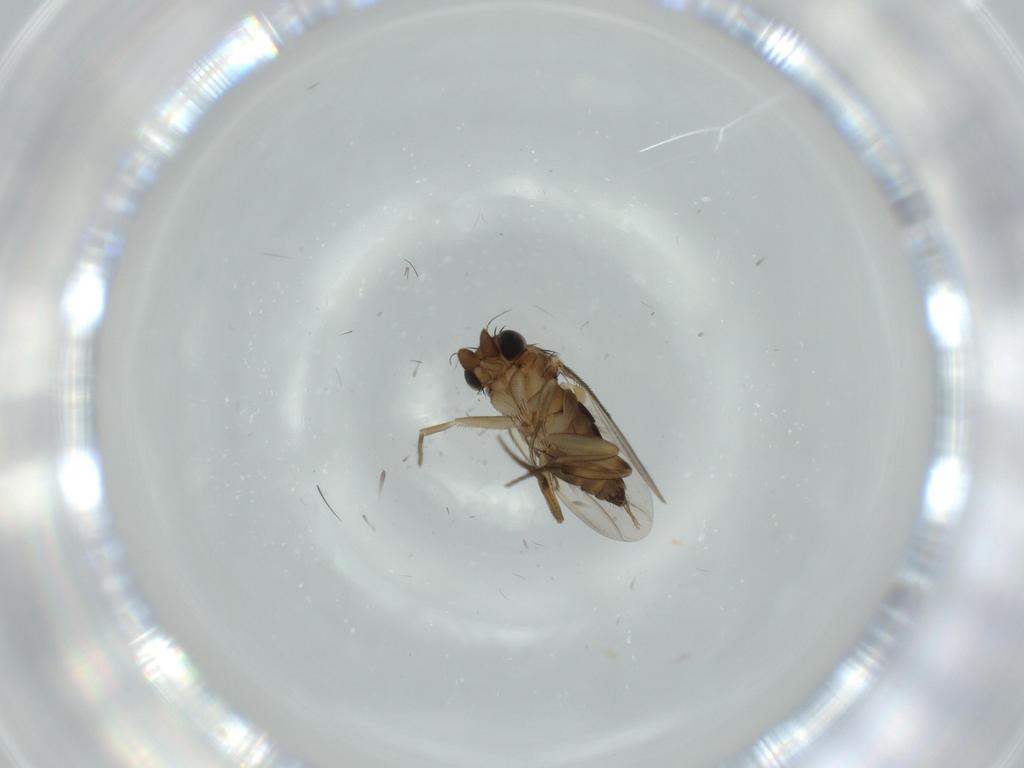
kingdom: Animalia
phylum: Arthropoda
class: Insecta
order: Diptera
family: Phoridae
